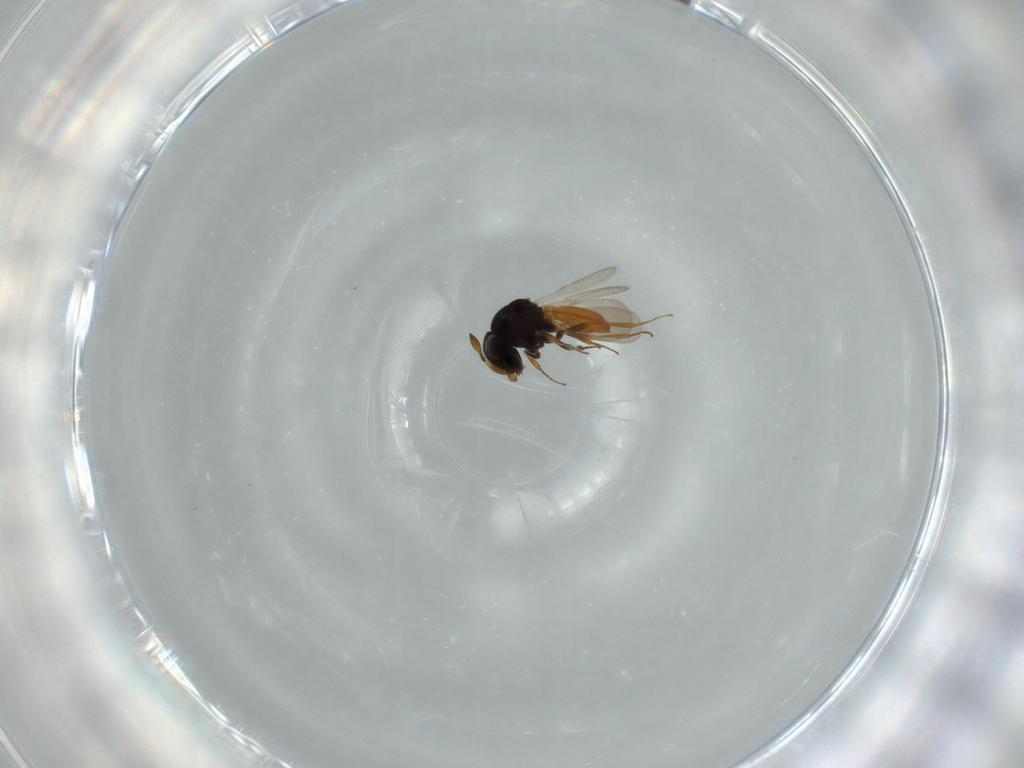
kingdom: Animalia
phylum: Arthropoda
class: Insecta
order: Hymenoptera
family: Scelionidae
